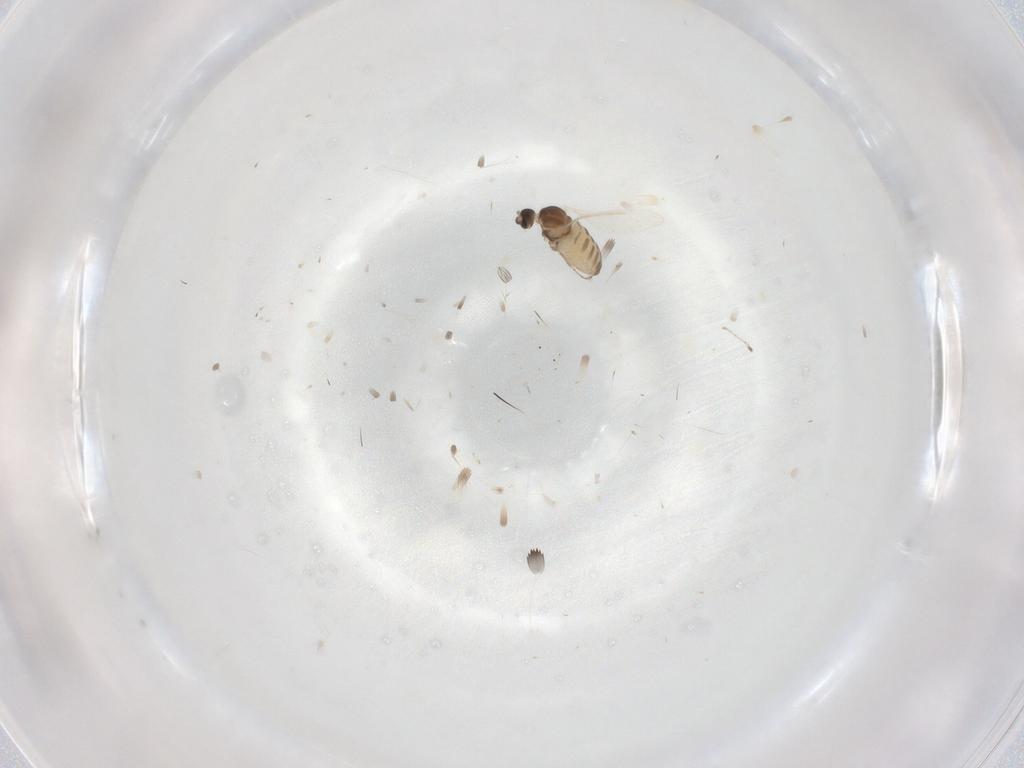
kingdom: Animalia
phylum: Arthropoda
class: Insecta
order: Diptera
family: Cecidomyiidae
